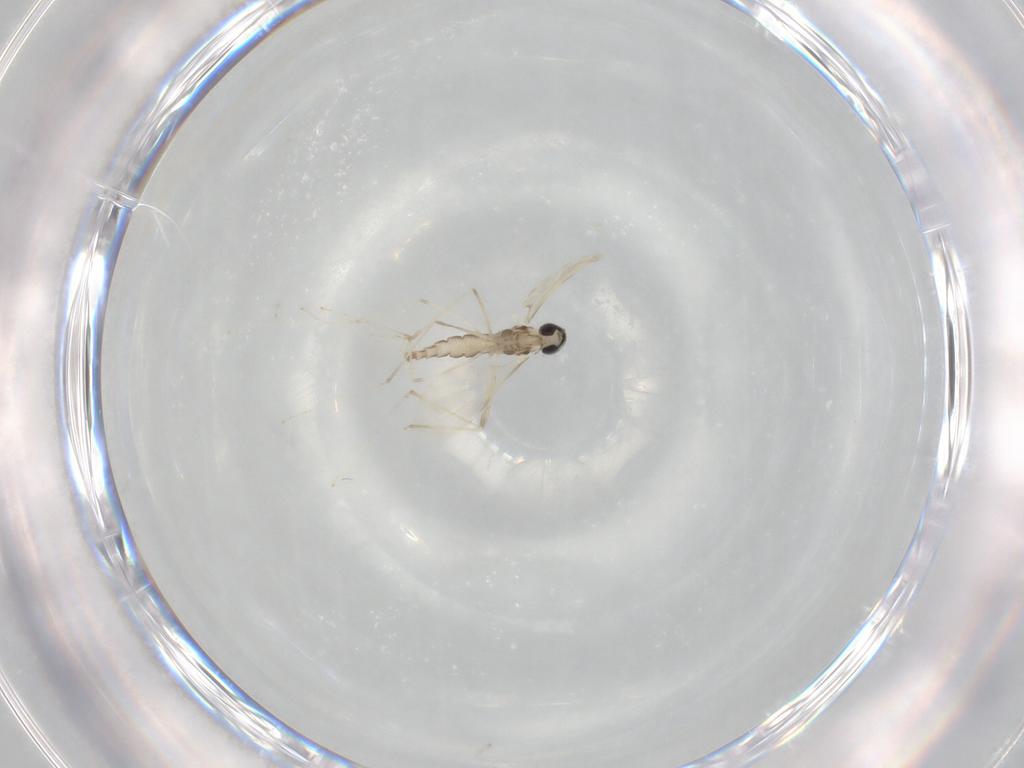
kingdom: Animalia
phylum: Arthropoda
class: Insecta
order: Diptera
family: Cecidomyiidae
